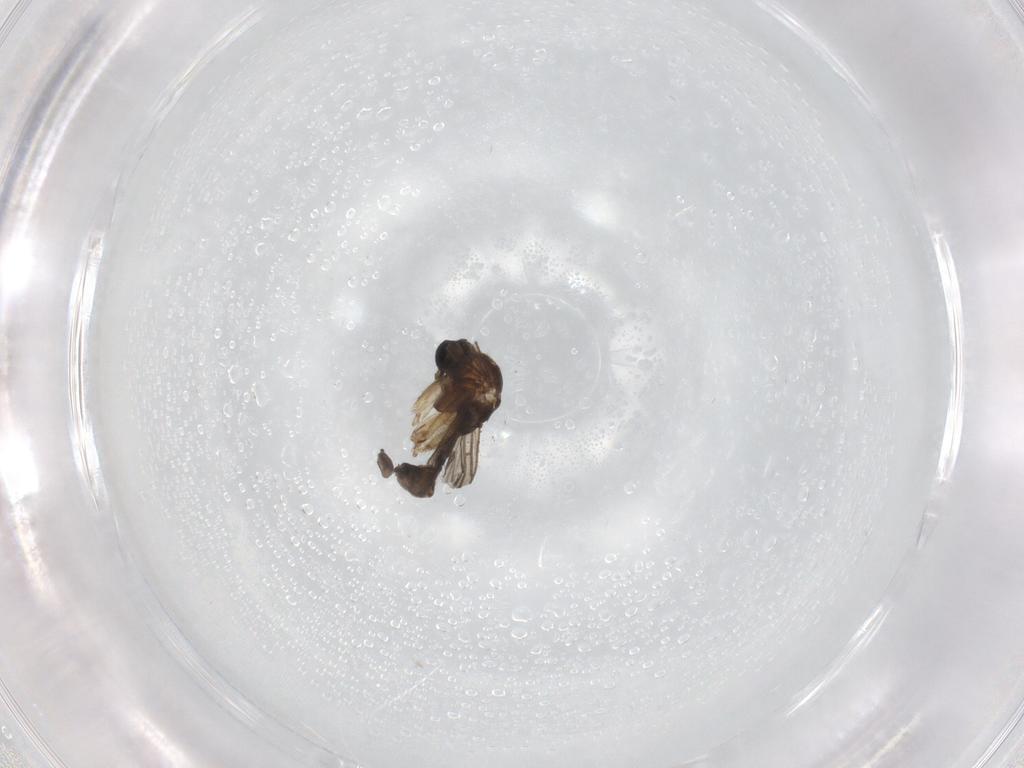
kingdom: Animalia
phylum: Arthropoda
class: Insecta
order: Diptera
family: Sciaridae
